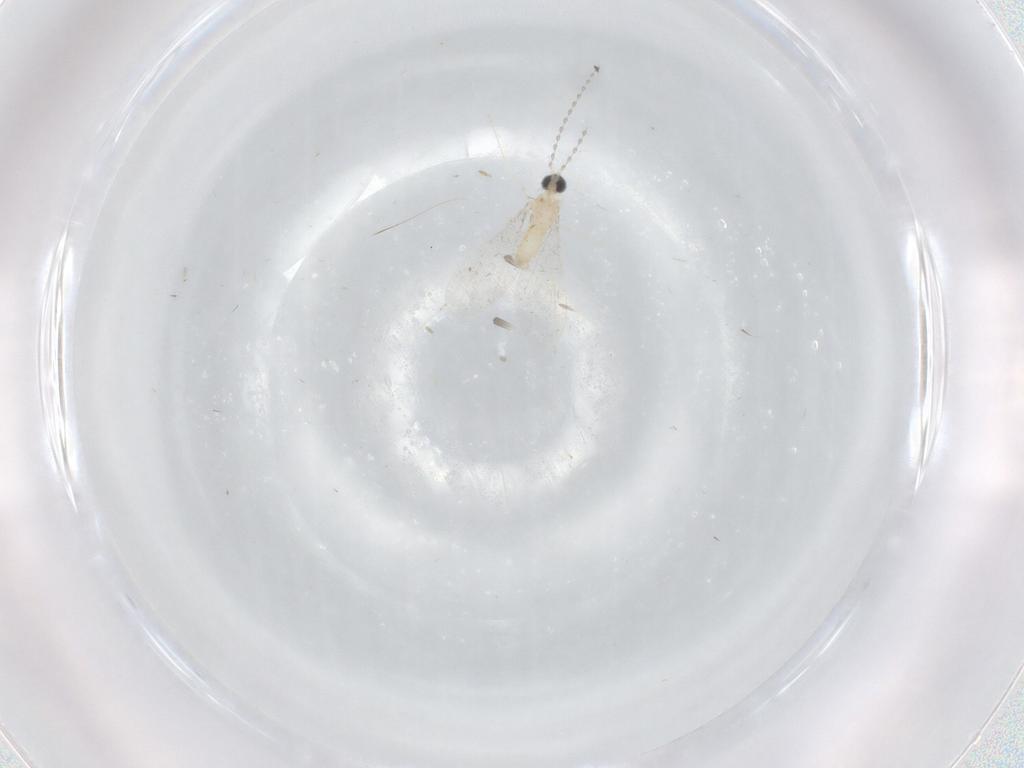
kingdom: Animalia
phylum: Arthropoda
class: Insecta
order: Diptera
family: Cecidomyiidae
